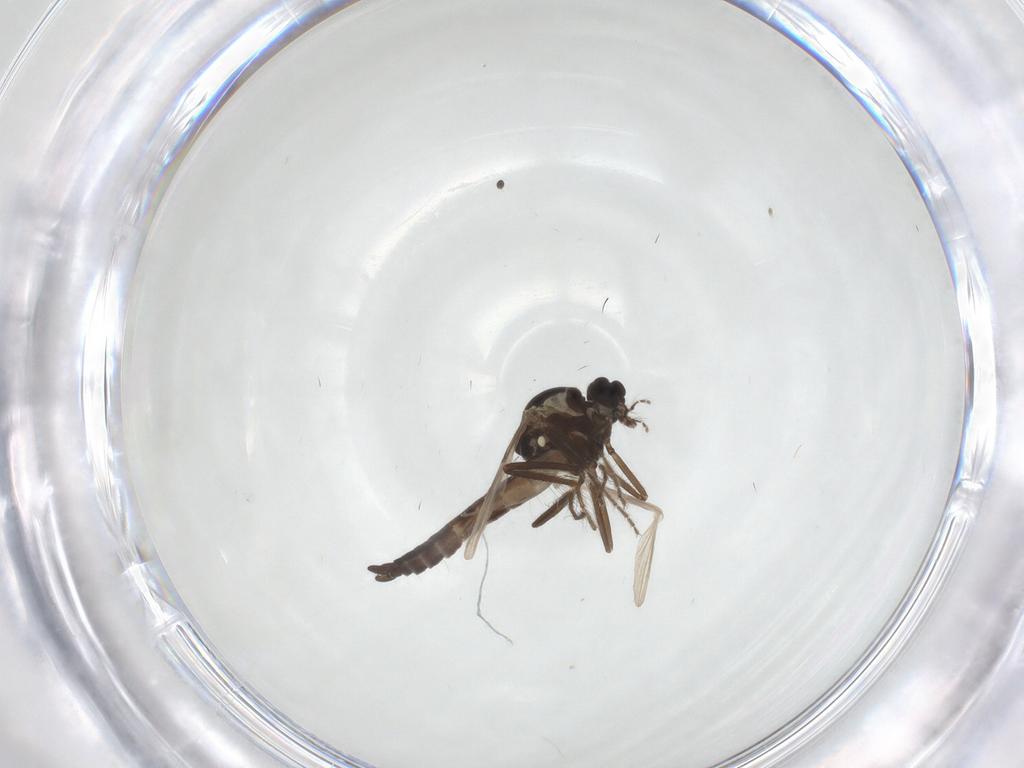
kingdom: Animalia
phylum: Arthropoda
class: Insecta
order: Diptera
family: Ceratopogonidae
